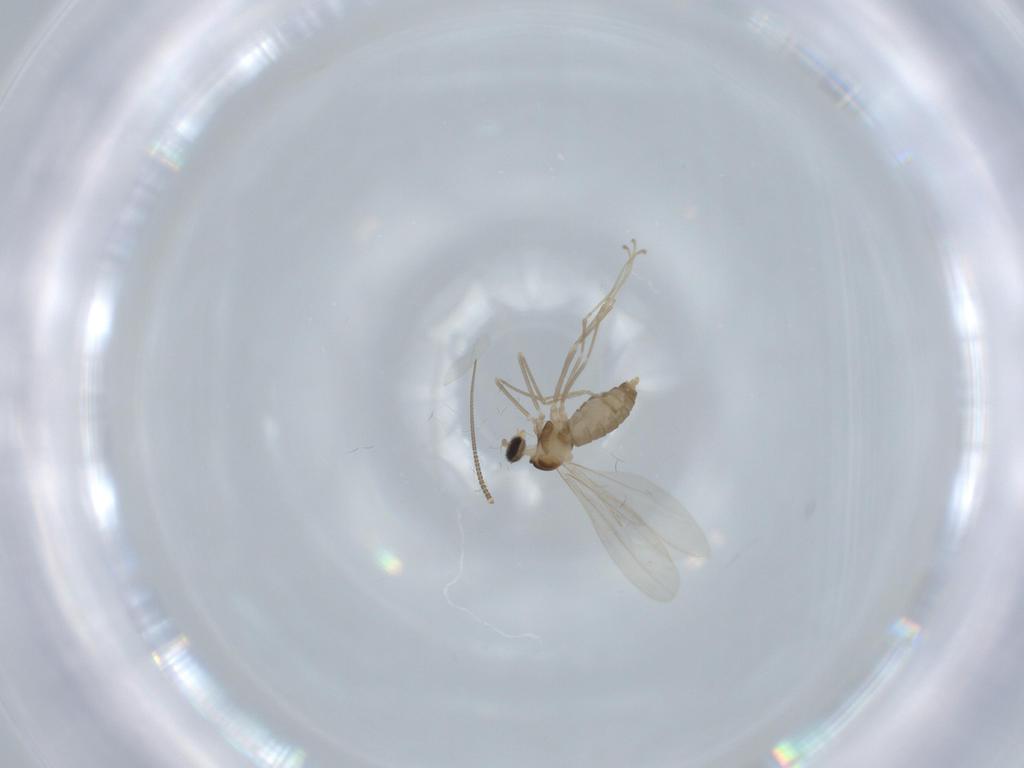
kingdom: Animalia
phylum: Arthropoda
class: Insecta
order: Diptera
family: Cecidomyiidae
